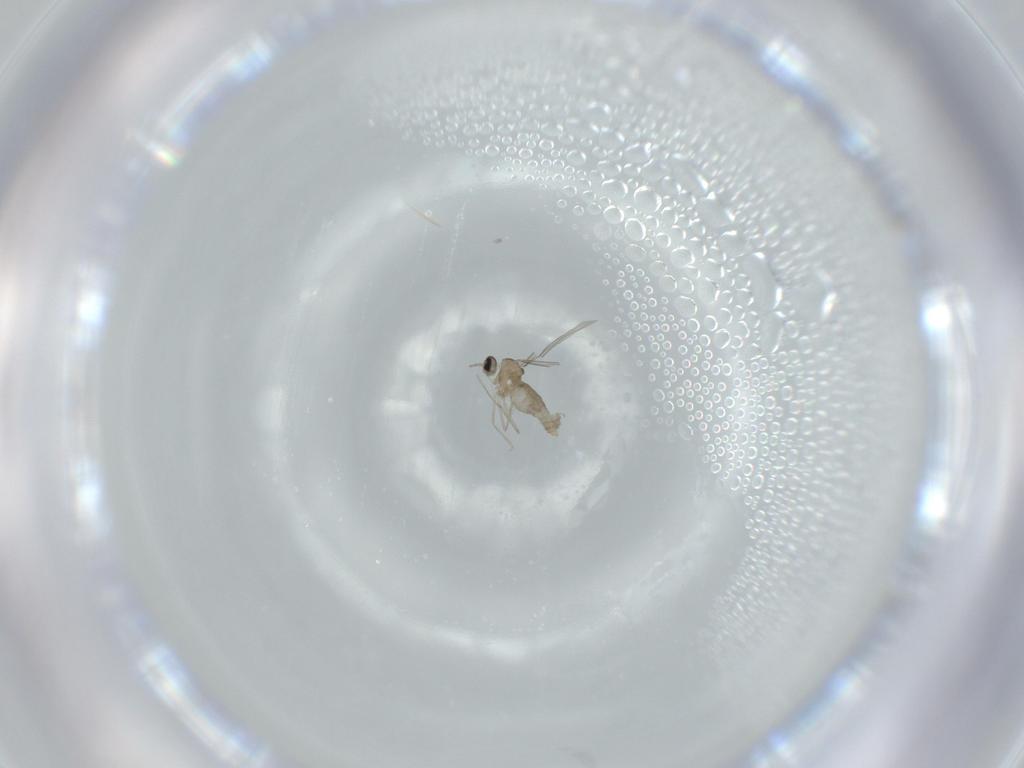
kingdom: Animalia
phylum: Arthropoda
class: Insecta
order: Diptera
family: Cecidomyiidae
